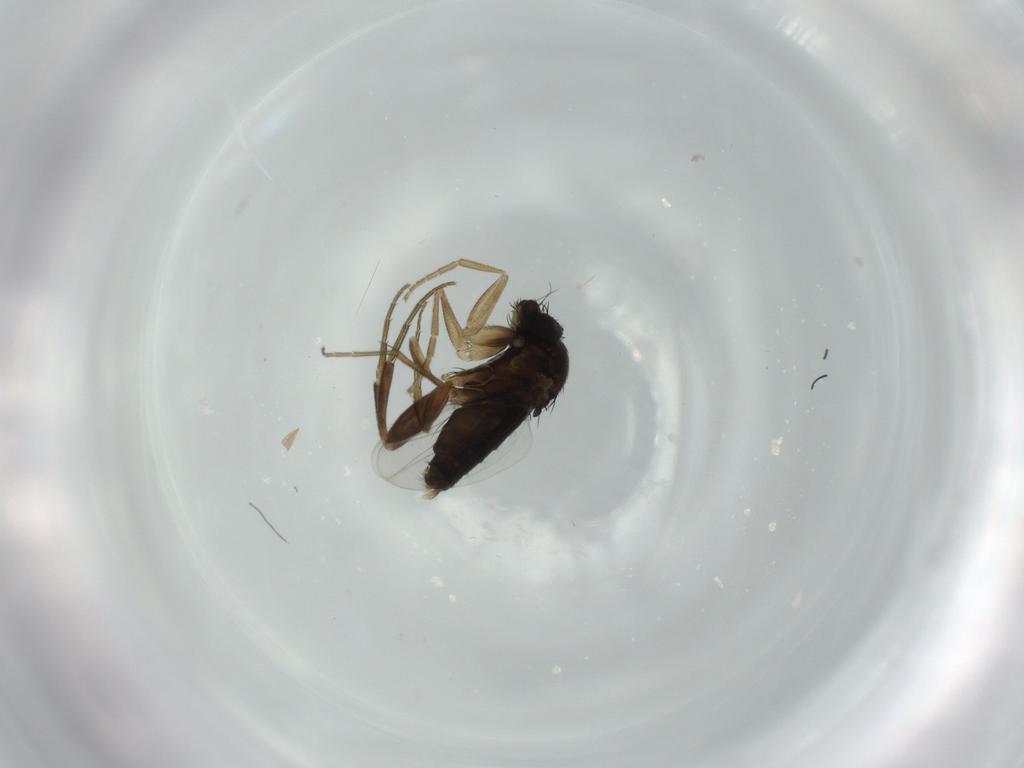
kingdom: Animalia
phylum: Arthropoda
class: Insecta
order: Diptera
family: Phoridae
